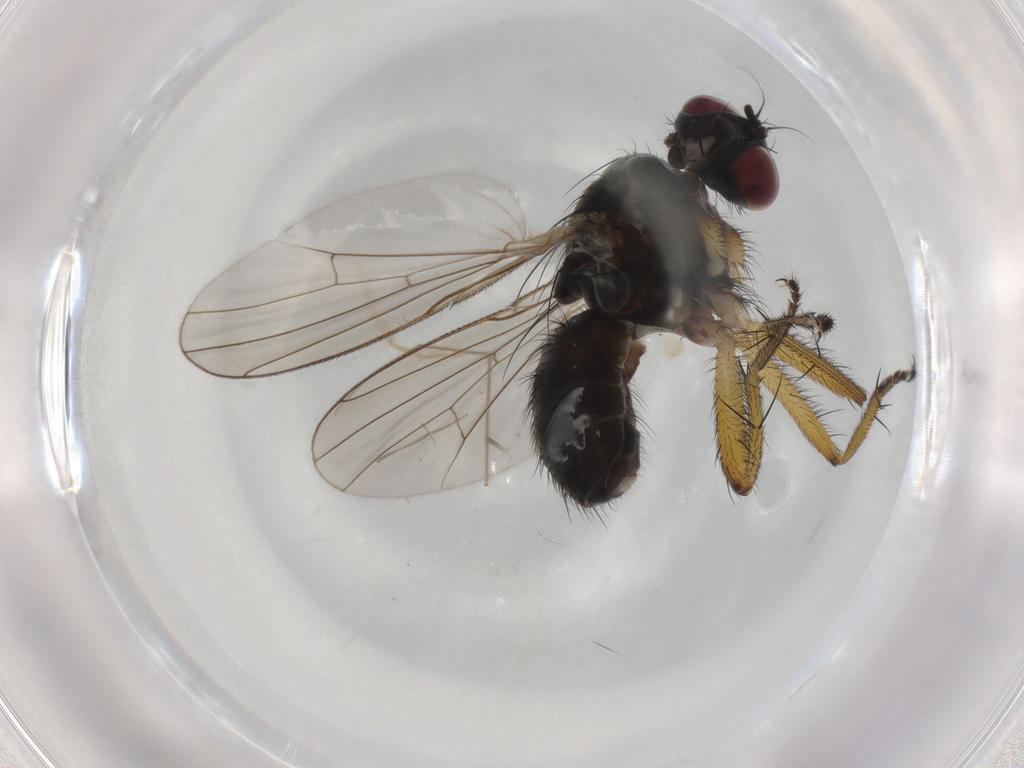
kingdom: Animalia
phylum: Arthropoda
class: Insecta
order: Diptera
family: Muscidae
